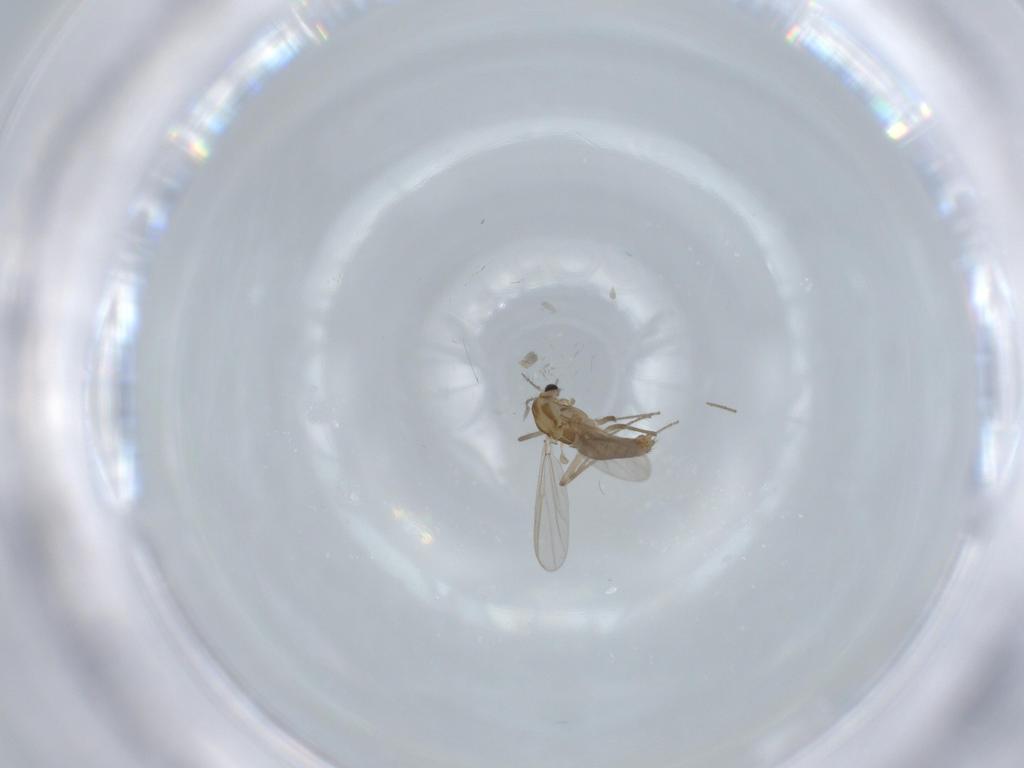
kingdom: Animalia
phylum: Arthropoda
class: Insecta
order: Diptera
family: Chironomidae
